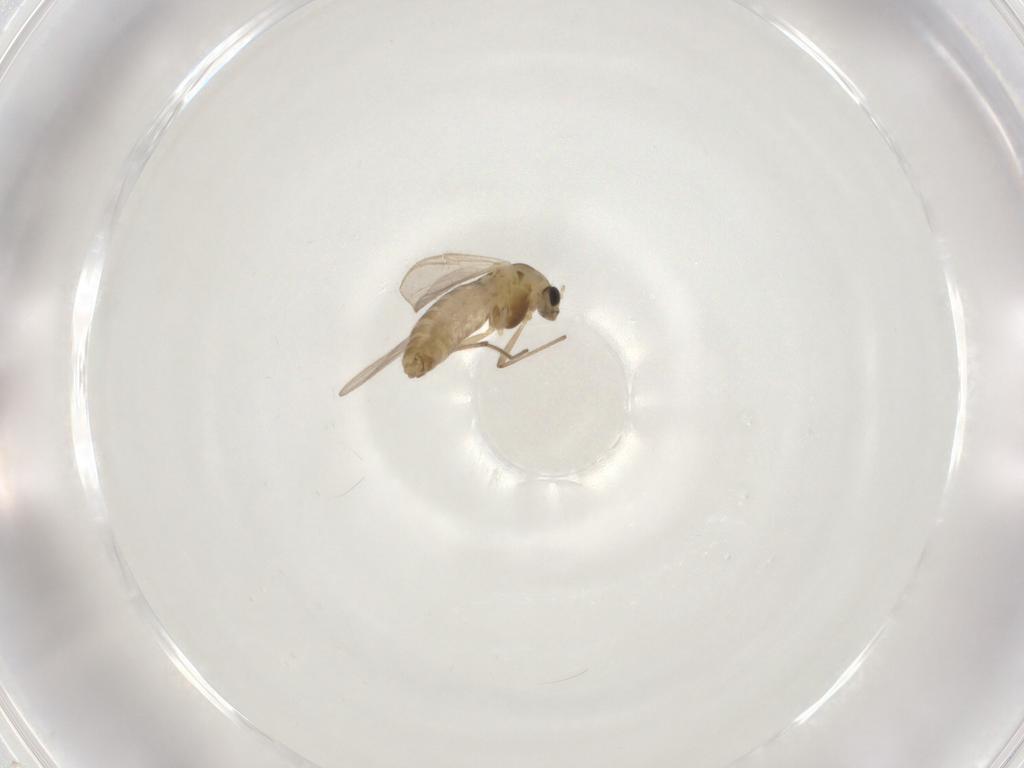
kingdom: Animalia
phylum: Arthropoda
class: Insecta
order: Diptera
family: Chironomidae
